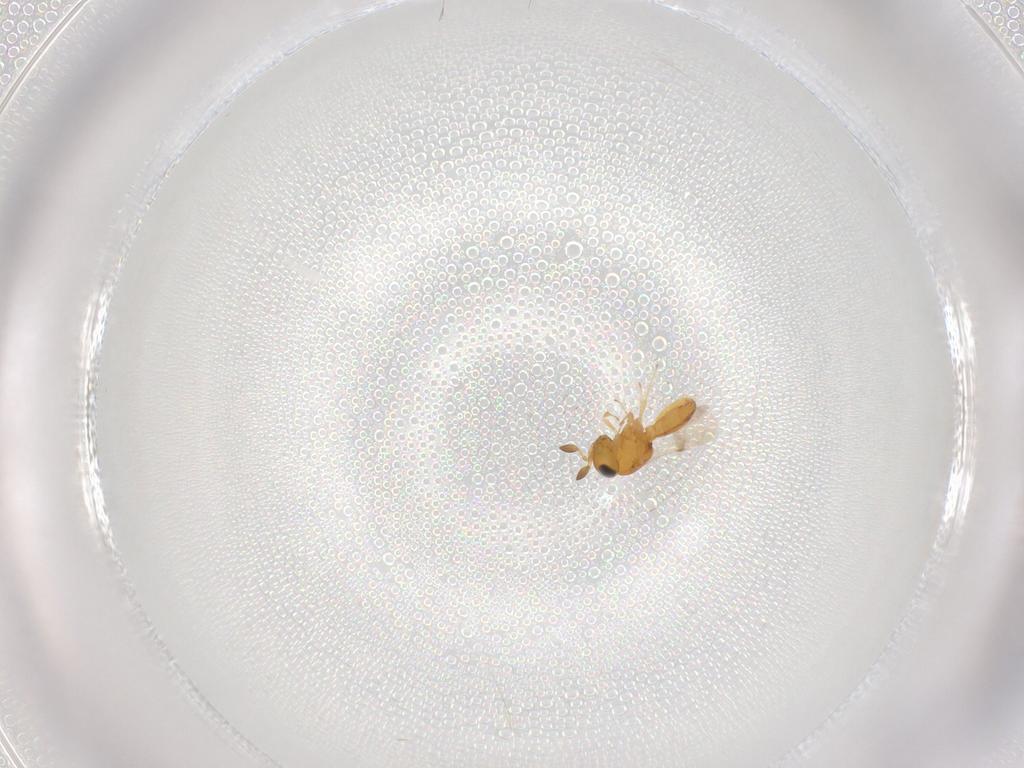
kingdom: Animalia
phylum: Arthropoda
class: Insecta
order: Hymenoptera
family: Scelionidae
